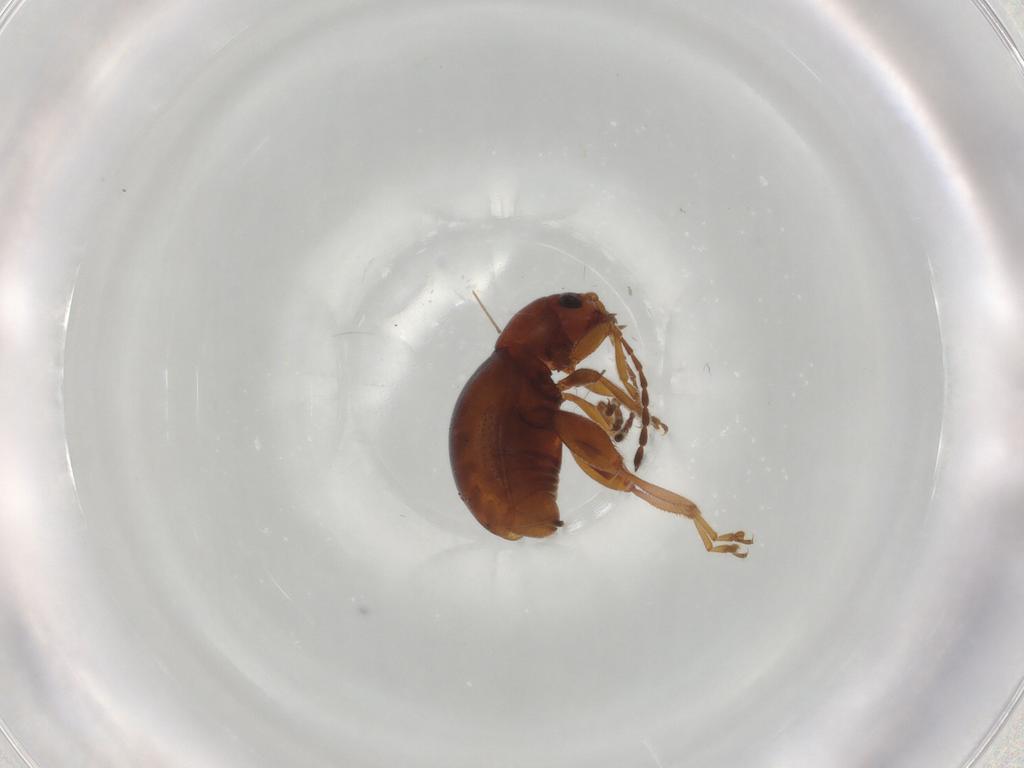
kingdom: Animalia
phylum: Arthropoda
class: Insecta
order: Coleoptera
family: Chrysomelidae
